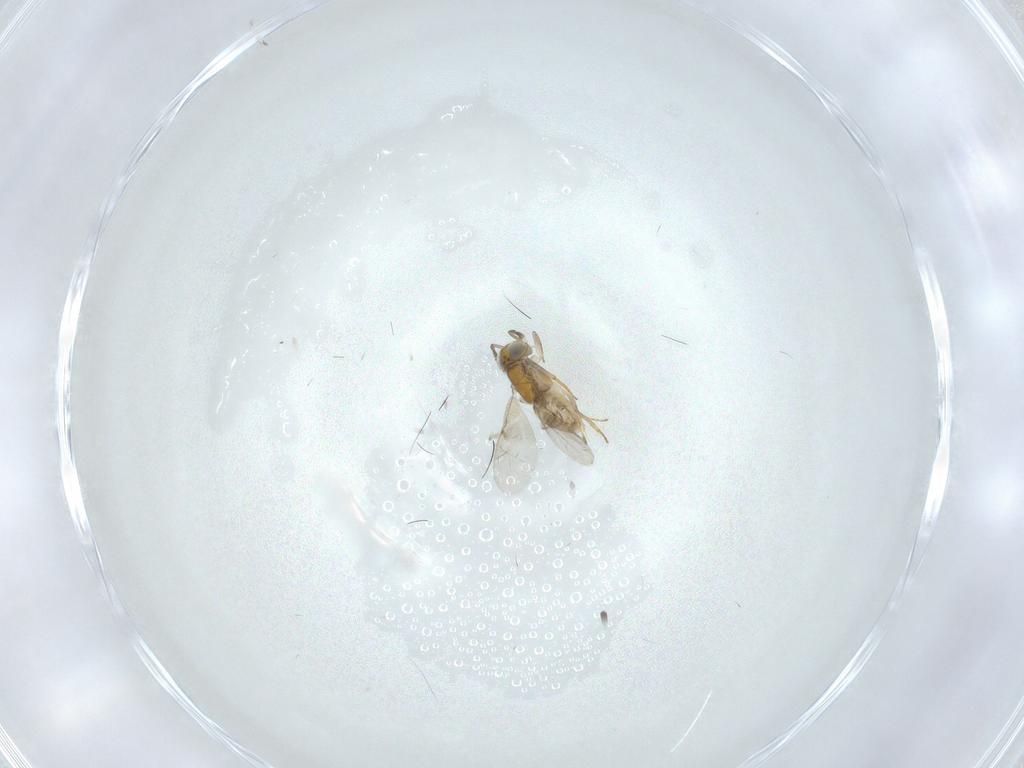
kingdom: Animalia
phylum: Arthropoda
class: Insecta
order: Hymenoptera
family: Encyrtidae
